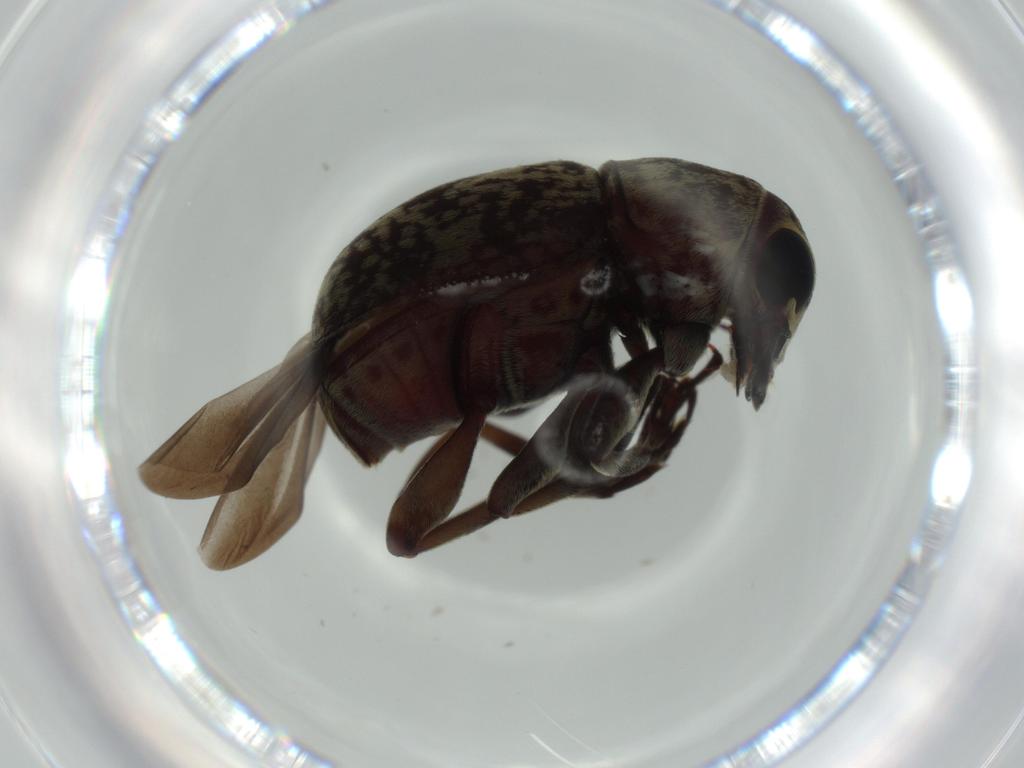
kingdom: Animalia
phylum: Arthropoda
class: Insecta
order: Coleoptera
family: Anthribidae
